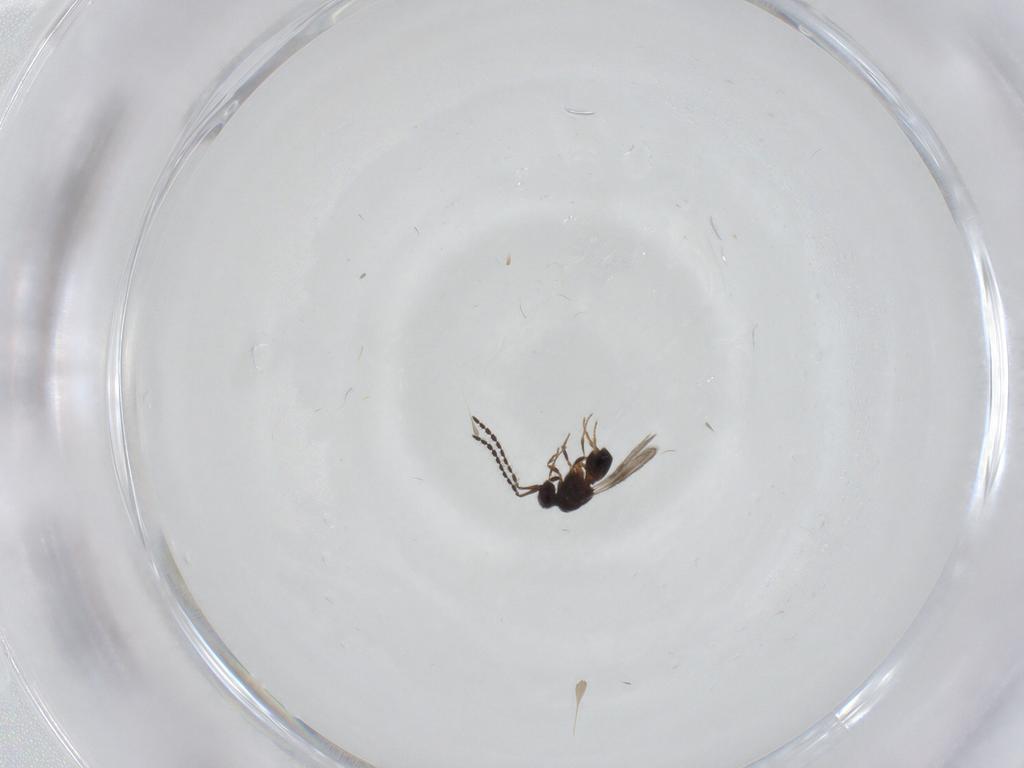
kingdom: Animalia
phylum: Arthropoda
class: Insecta
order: Hymenoptera
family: Ceraphronidae
